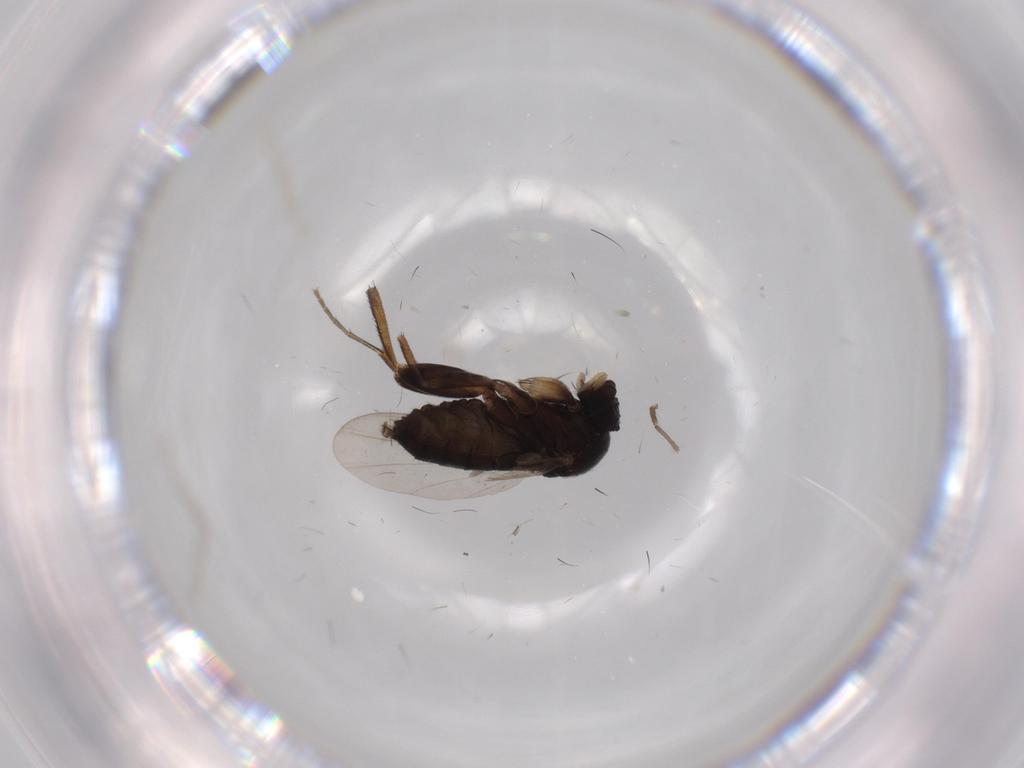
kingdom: Animalia
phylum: Arthropoda
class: Insecta
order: Diptera
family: Phoridae
